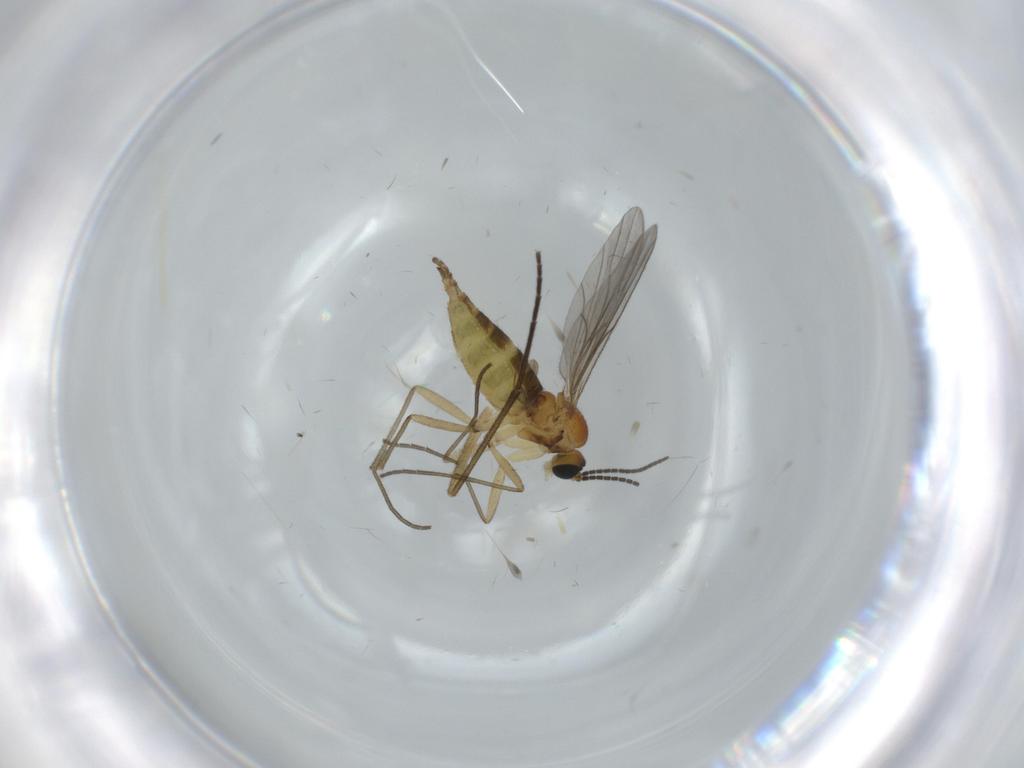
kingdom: Animalia
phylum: Arthropoda
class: Insecta
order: Diptera
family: Sciaridae
